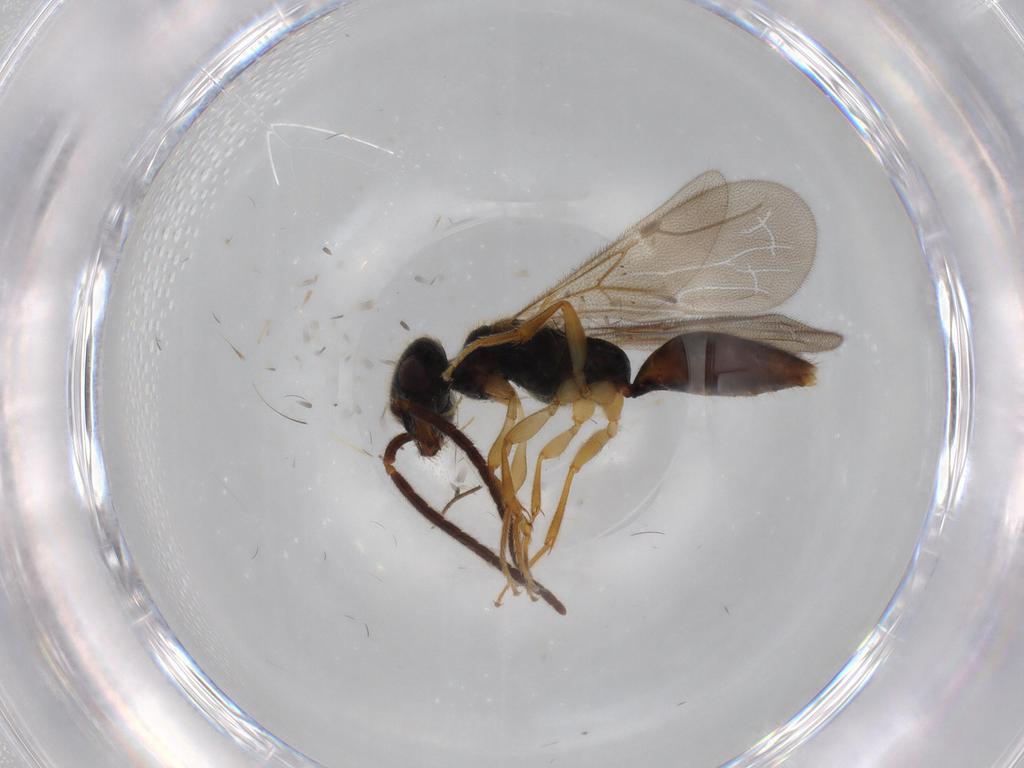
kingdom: Animalia
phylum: Arthropoda
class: Insecta
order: Hymenoptera
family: Bethylidae
